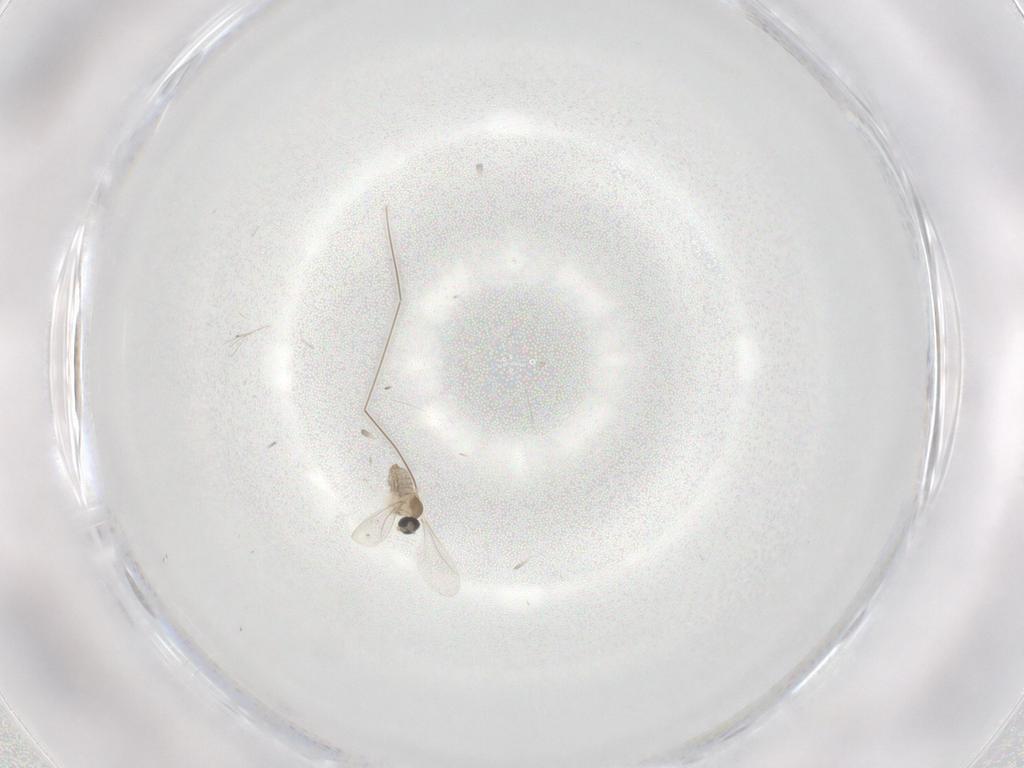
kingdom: Animalia
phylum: Arthropoda
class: Insecta
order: Diptera
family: Cecidomyiidae
